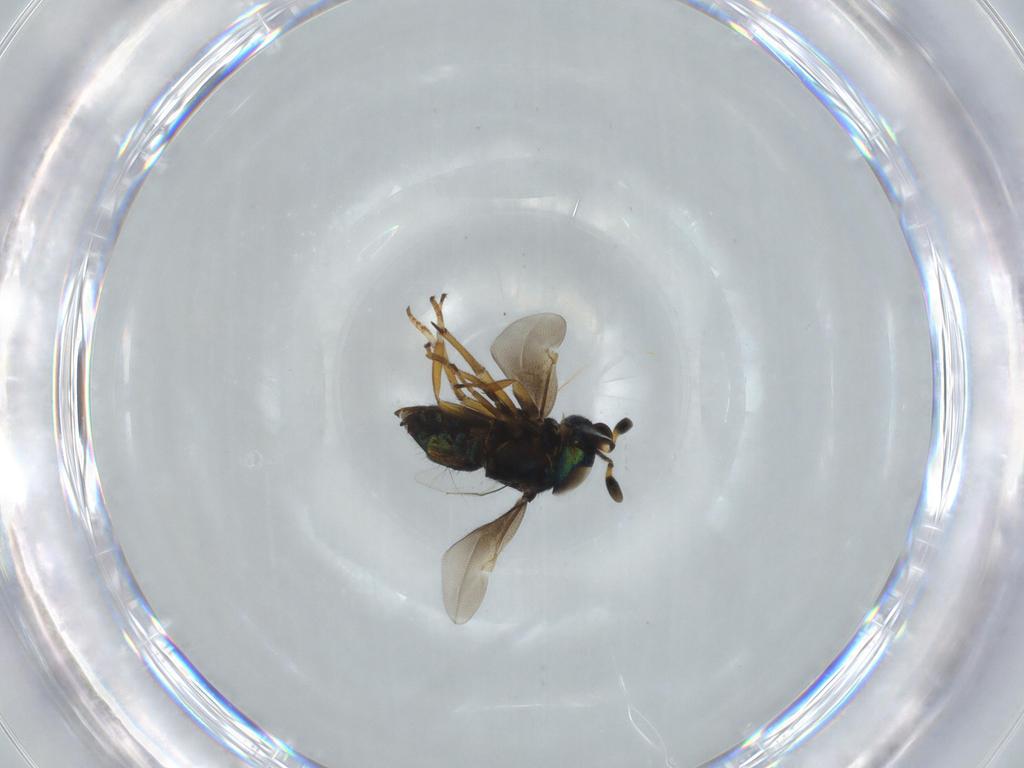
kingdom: Animalia
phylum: Arthropoda
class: Insecta
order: Hymenoptera
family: Encyrtidae
